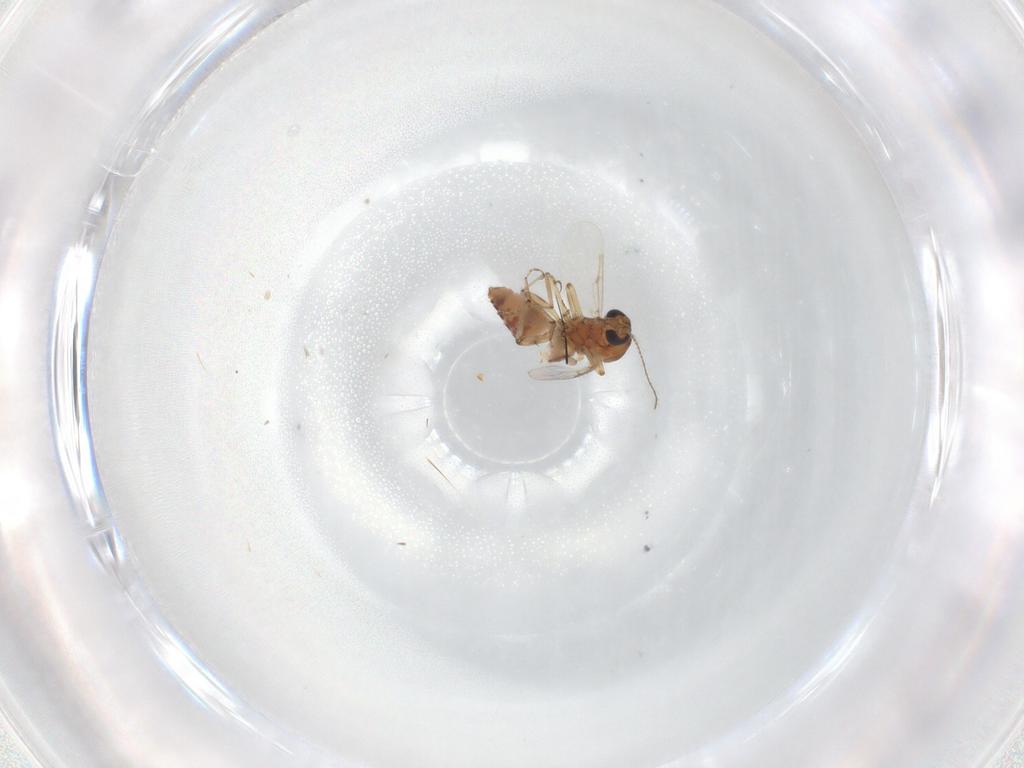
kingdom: Animalia
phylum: Arthropoda
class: Insecta
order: Diptera
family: Ceratopogonidae
